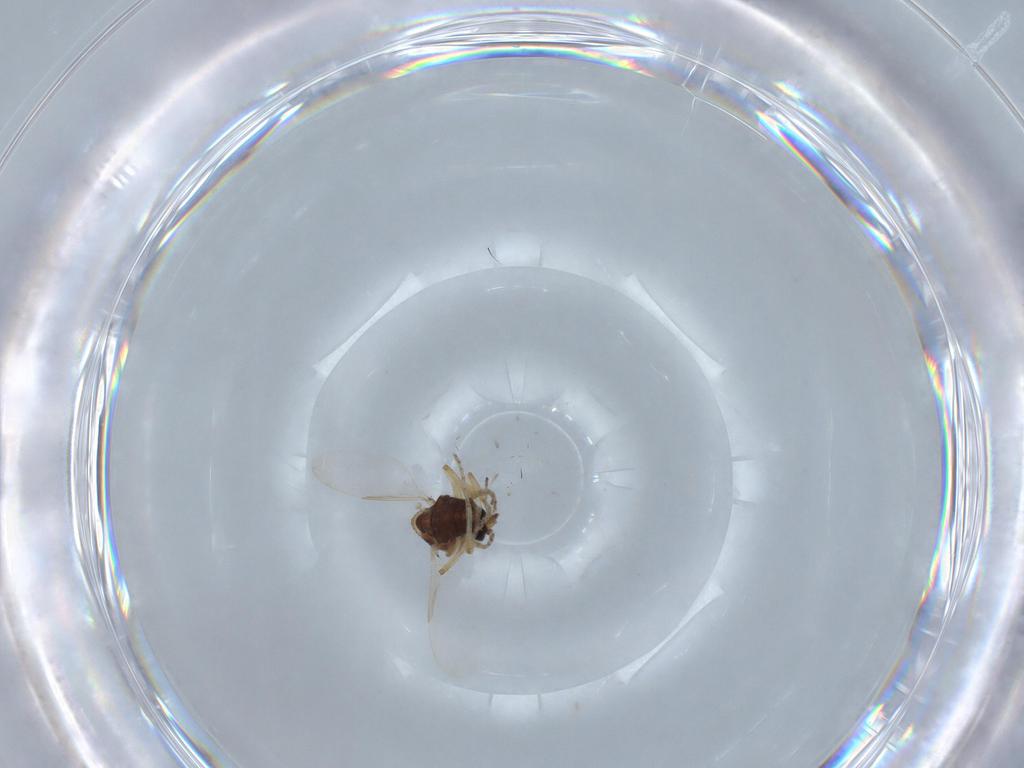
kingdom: Animalia
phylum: Arthropoda
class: Insecta
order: Diptera
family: Ceratopogonidae
